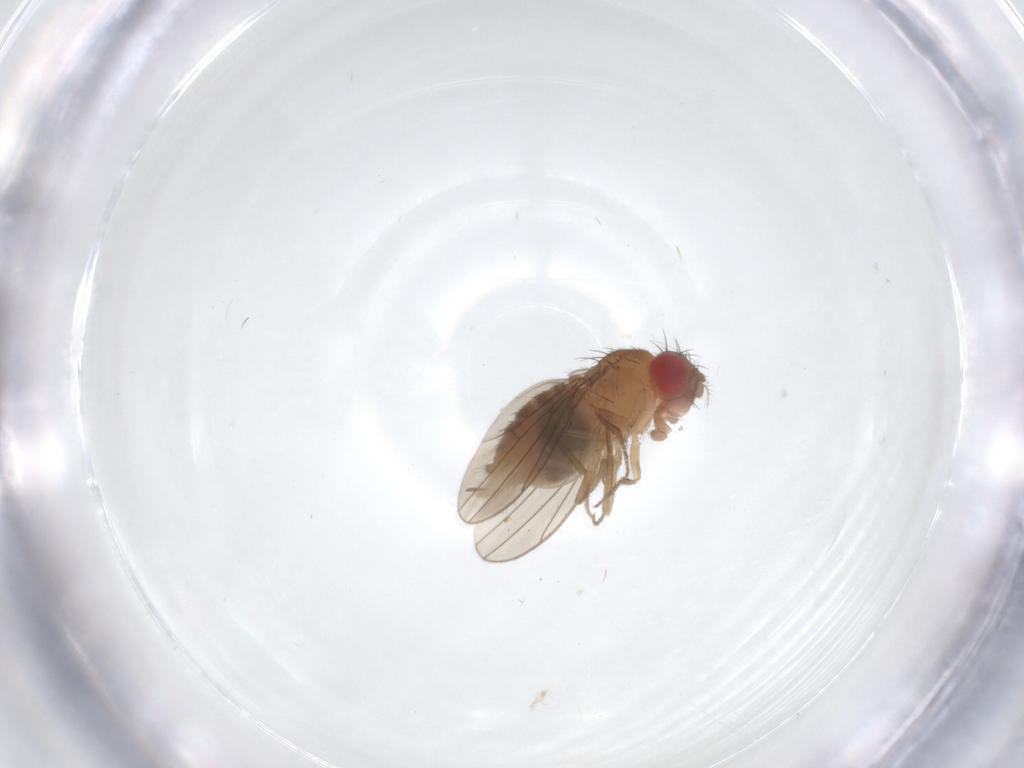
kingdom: Animalia
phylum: Arthropoda
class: Insecta
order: Diptera
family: Drosophilidae
